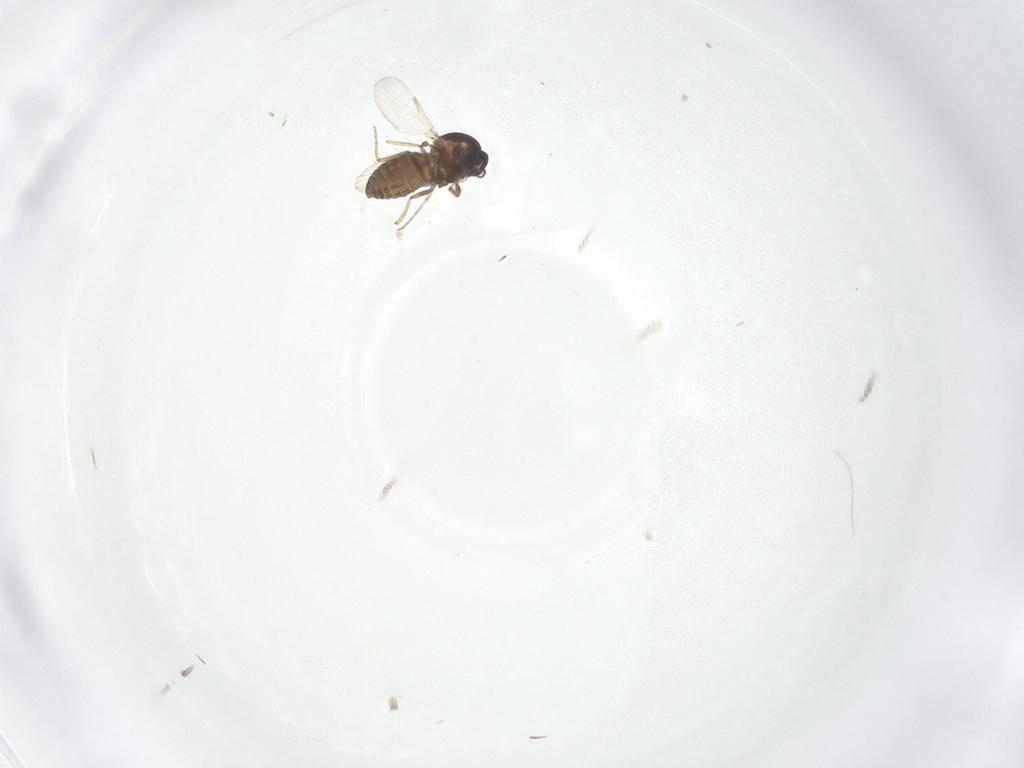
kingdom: Animalia
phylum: Arthropoda
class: Insecta
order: Diptera
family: Ceratopogonidae
